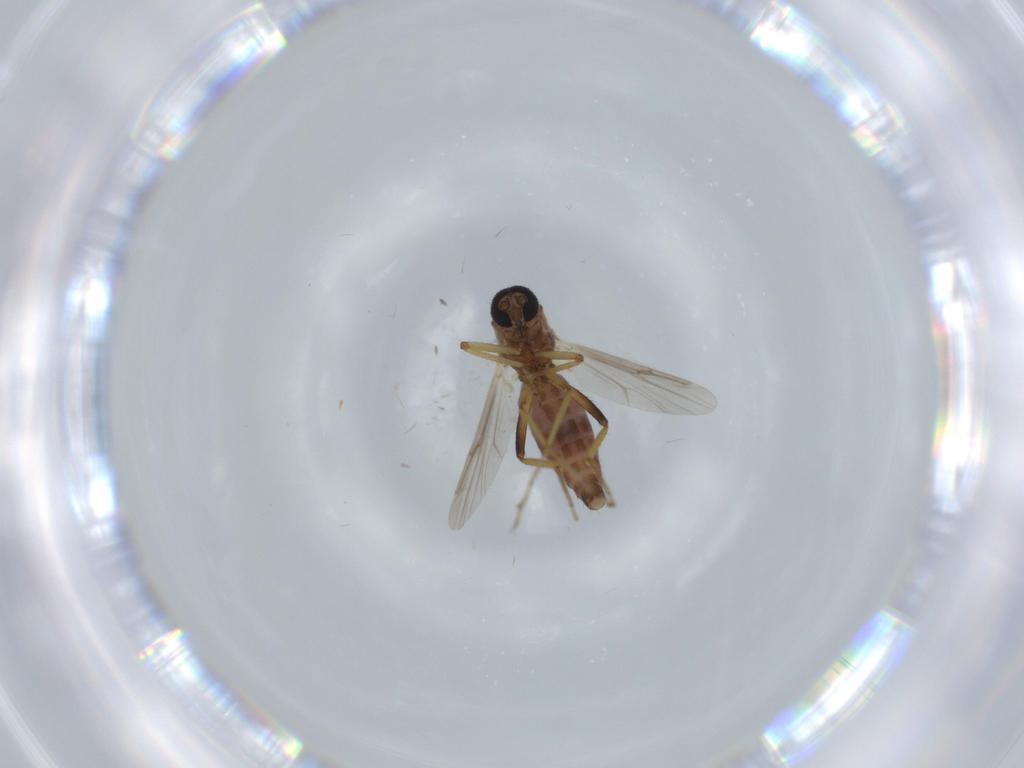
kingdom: Animalia
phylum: Arthropoda
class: Insecta
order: Diptera
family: Ceratopogonidae
